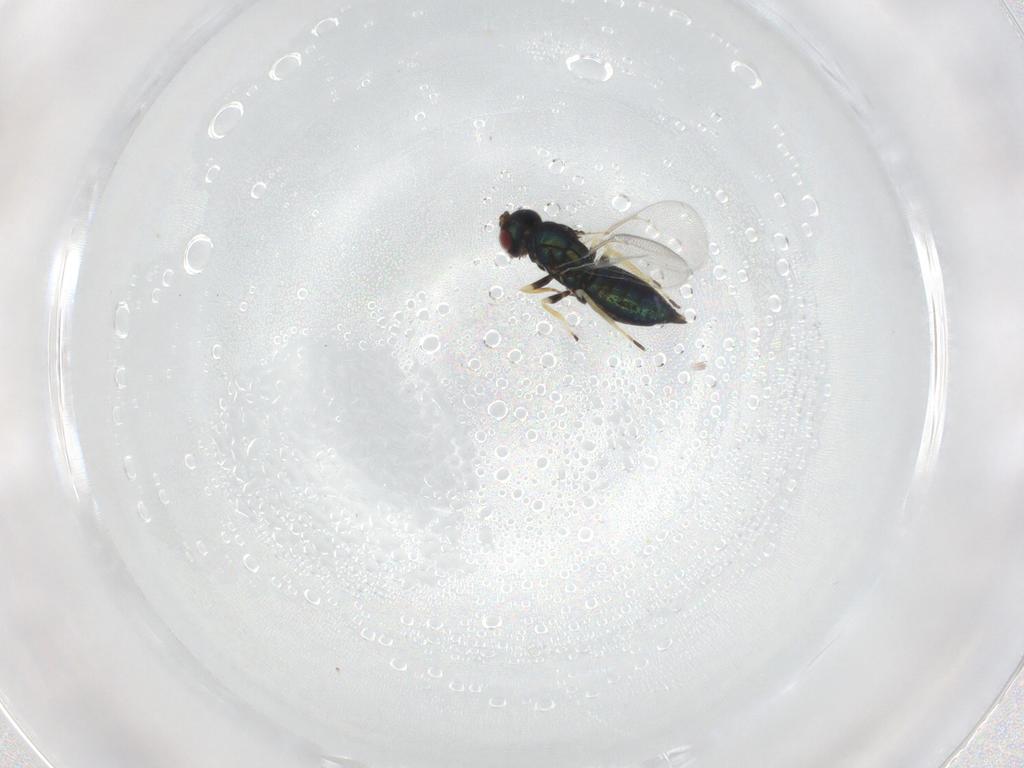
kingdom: Animalia
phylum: Arthropoda
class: Insecta
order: Hymenoptera
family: Eulophidae
